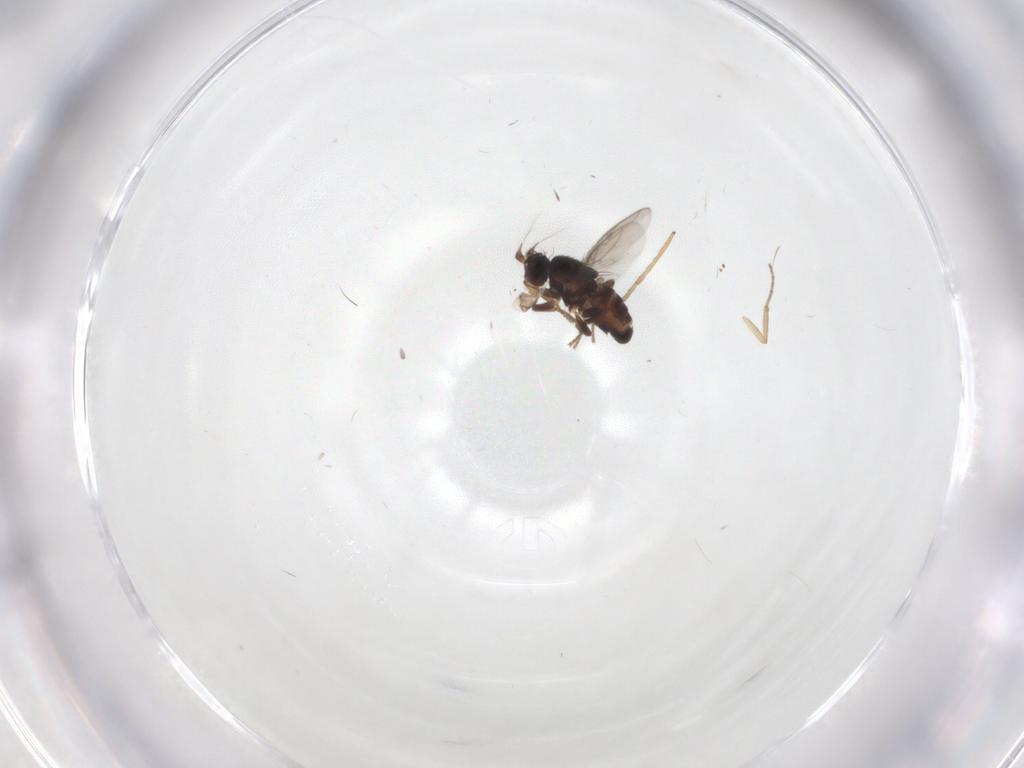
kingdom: Animalia
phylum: Arthropoda
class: Insecta
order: Diptera
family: Sphaeroceridae
